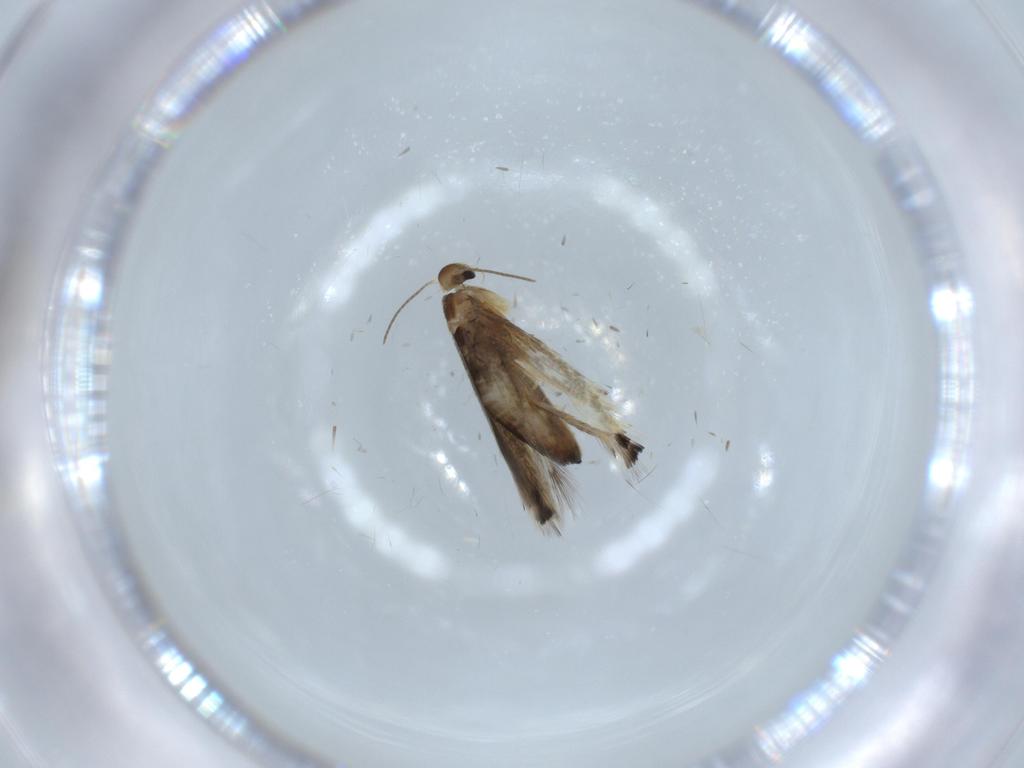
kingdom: Animalia
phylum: Arthropoda
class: Insecta
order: Lepidoptera
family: Heliozelidae
